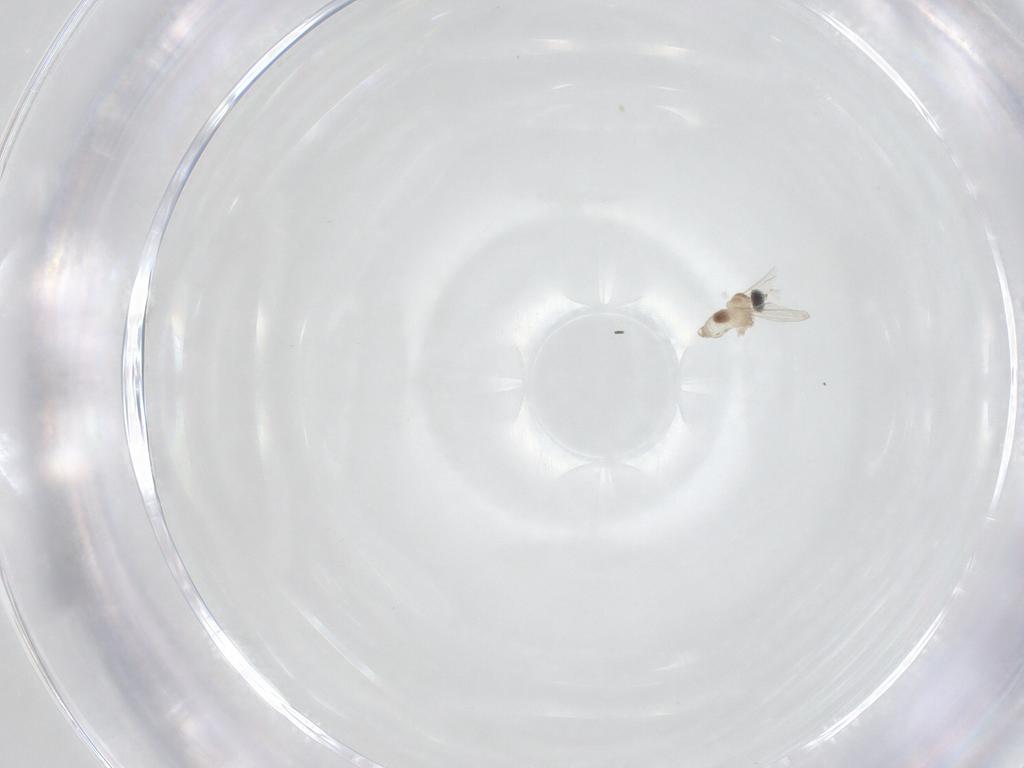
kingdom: Animalia
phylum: Arthropoda
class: Insecta
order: Diptera
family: Cecidomyiidae
